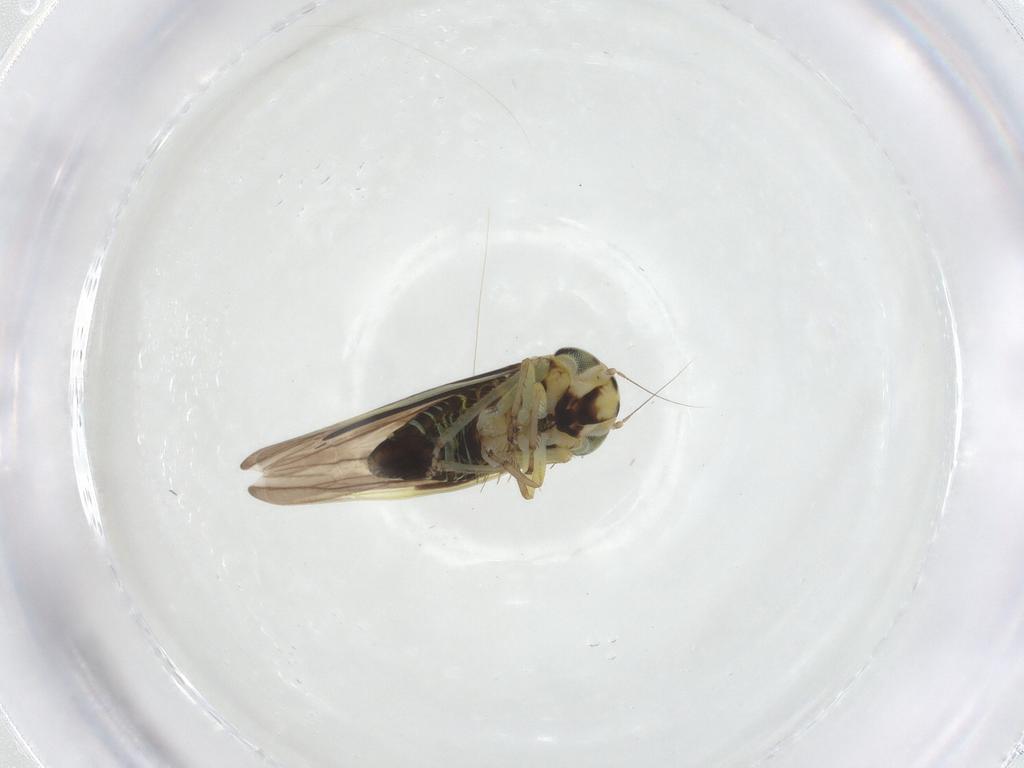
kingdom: Animalia
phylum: Arthropoda
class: Insecta
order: Hemiptera
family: Cicadellidae
